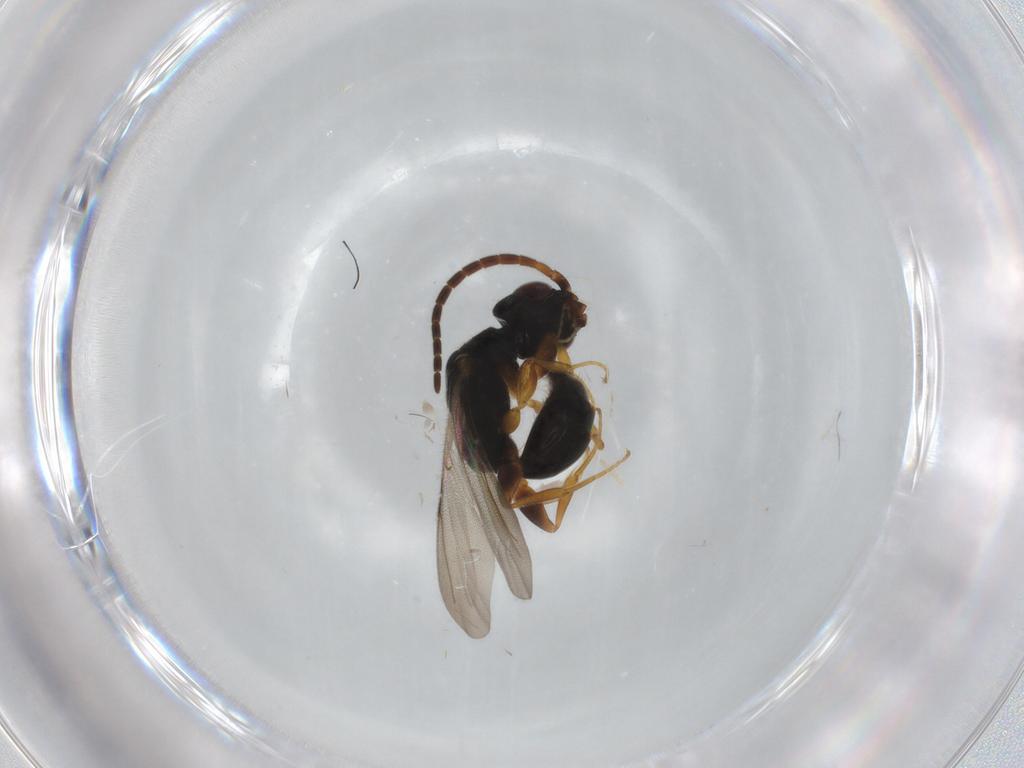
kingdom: Animalia
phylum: Arthropoda
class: Insecta
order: Hymenoptera
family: Bethylidae
